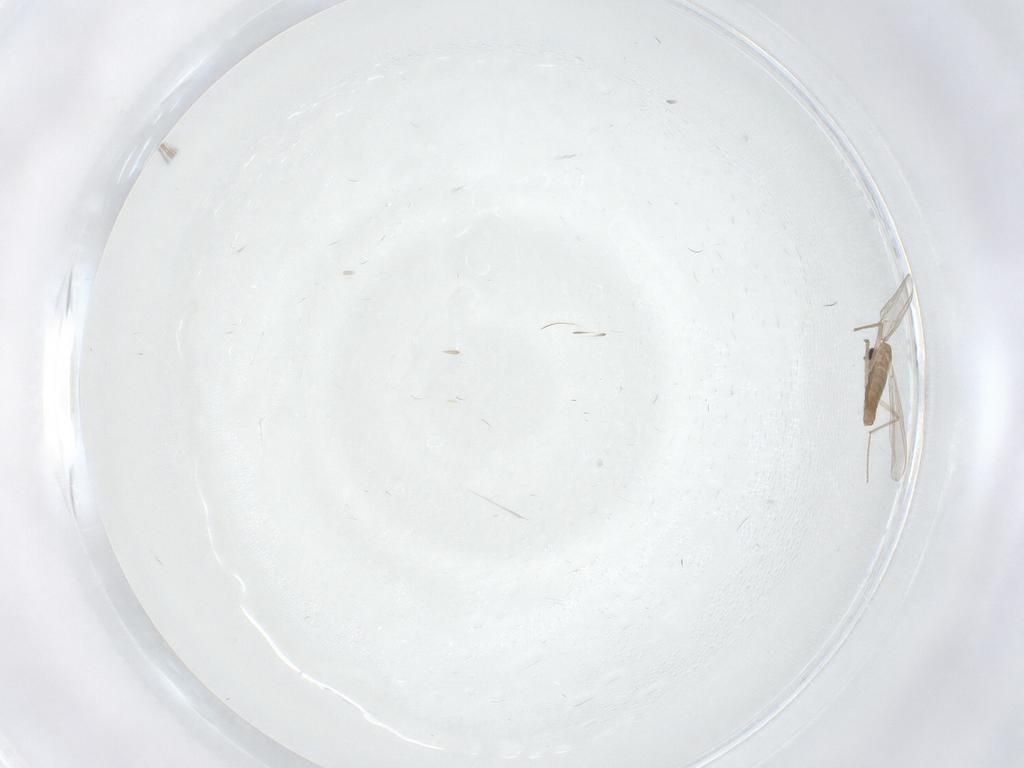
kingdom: Animalia
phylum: Arthropoda
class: Insecta
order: Diptera
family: Chironomidae
